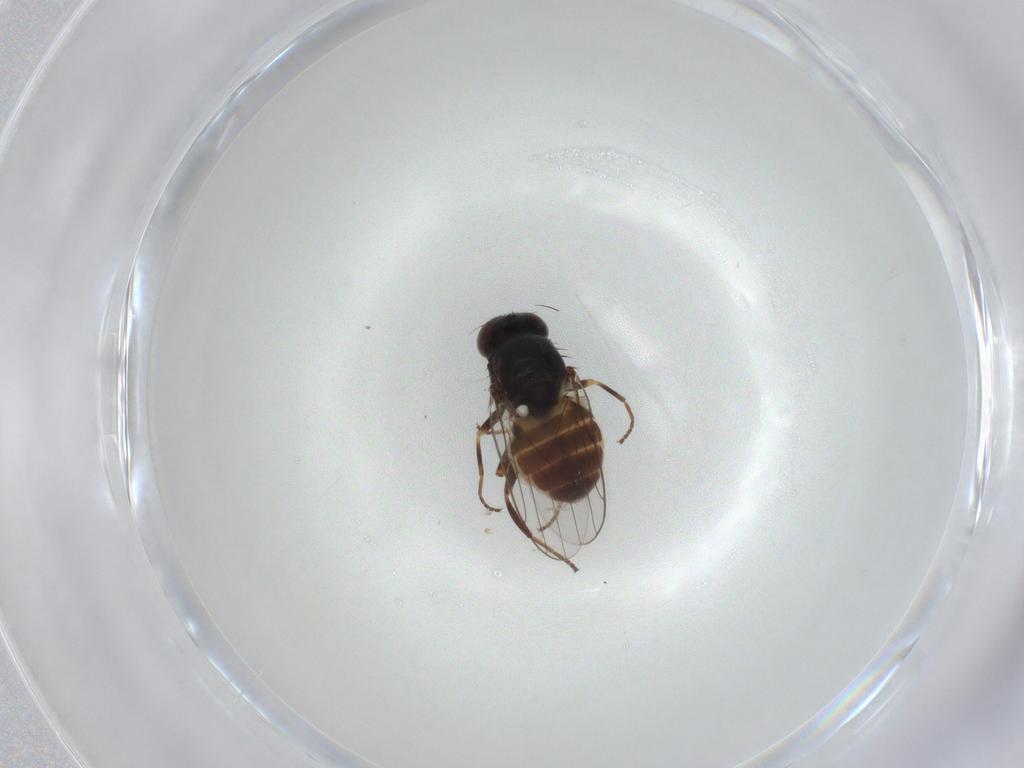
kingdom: Animalia
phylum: Arthropoda
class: Insecta
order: Diptera
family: Chloropidae
